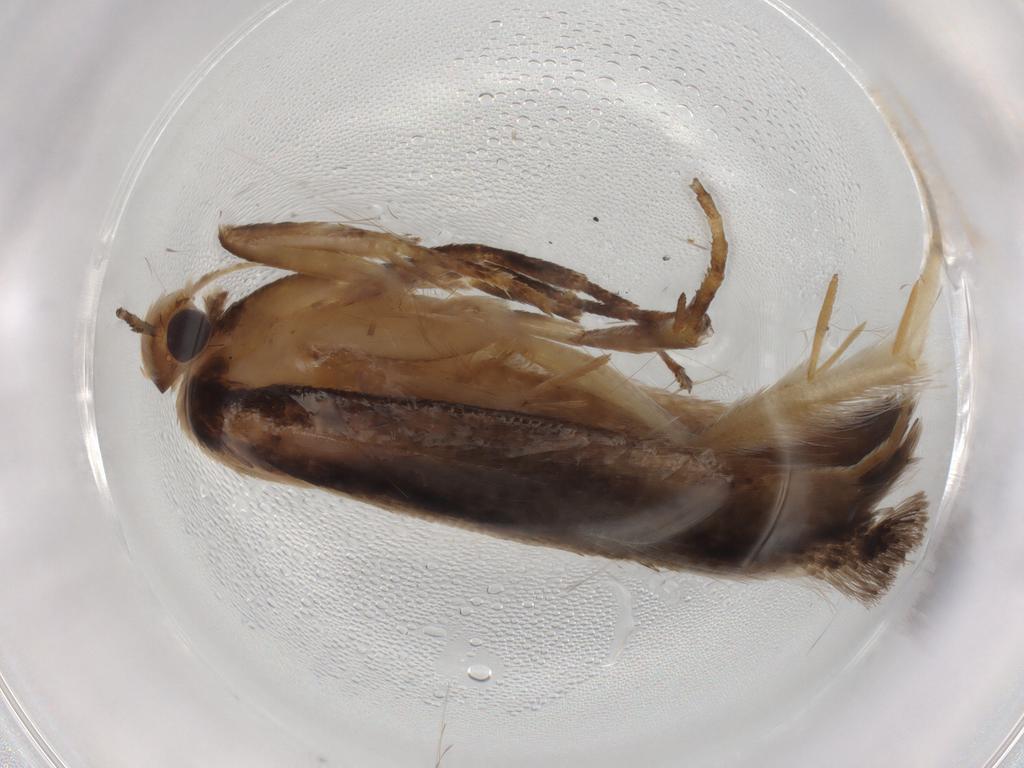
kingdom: Animalia
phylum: Arthropoda
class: Insecta
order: Lepidoptera
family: Gelechiidae
